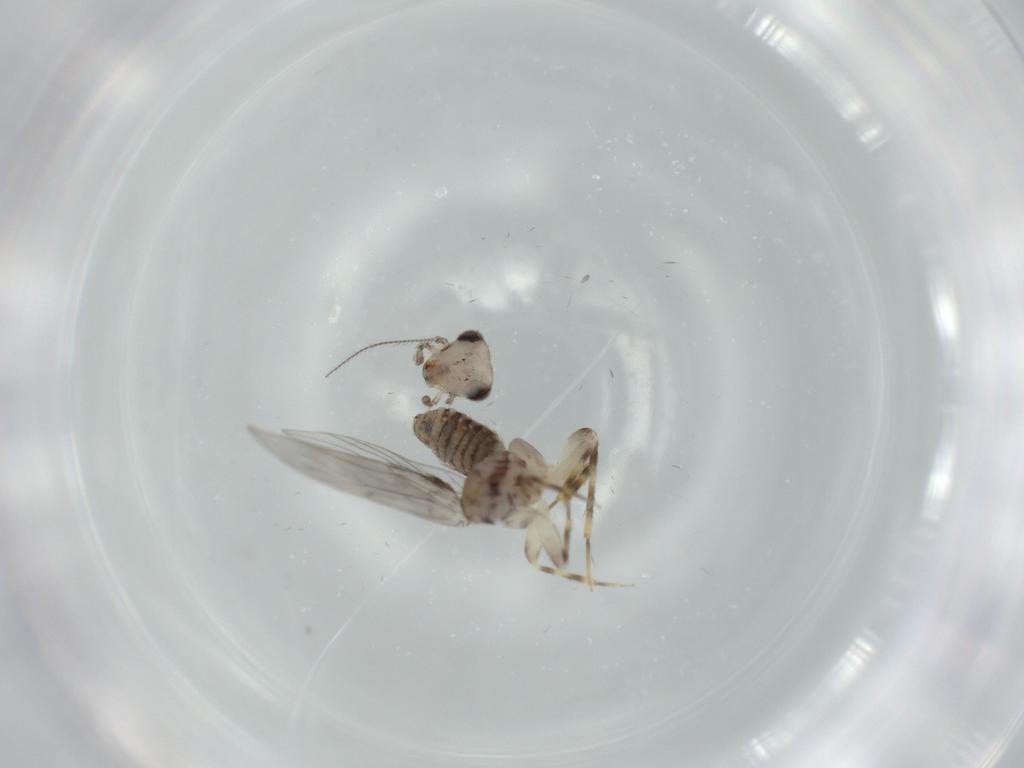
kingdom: Animalia
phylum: Arthropoda
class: Insecta
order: Psocodea
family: Lepidopsocidae
